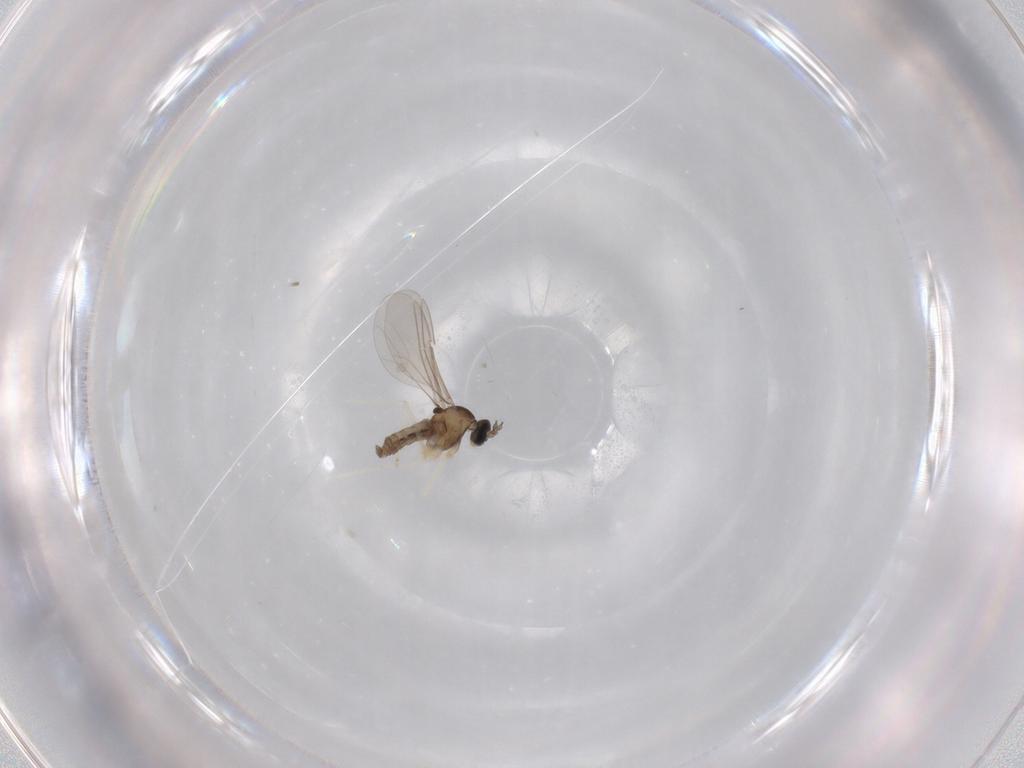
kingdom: Animalia
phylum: Arthropoda
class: Insecta
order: Diptera
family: Cecidomyiidae
